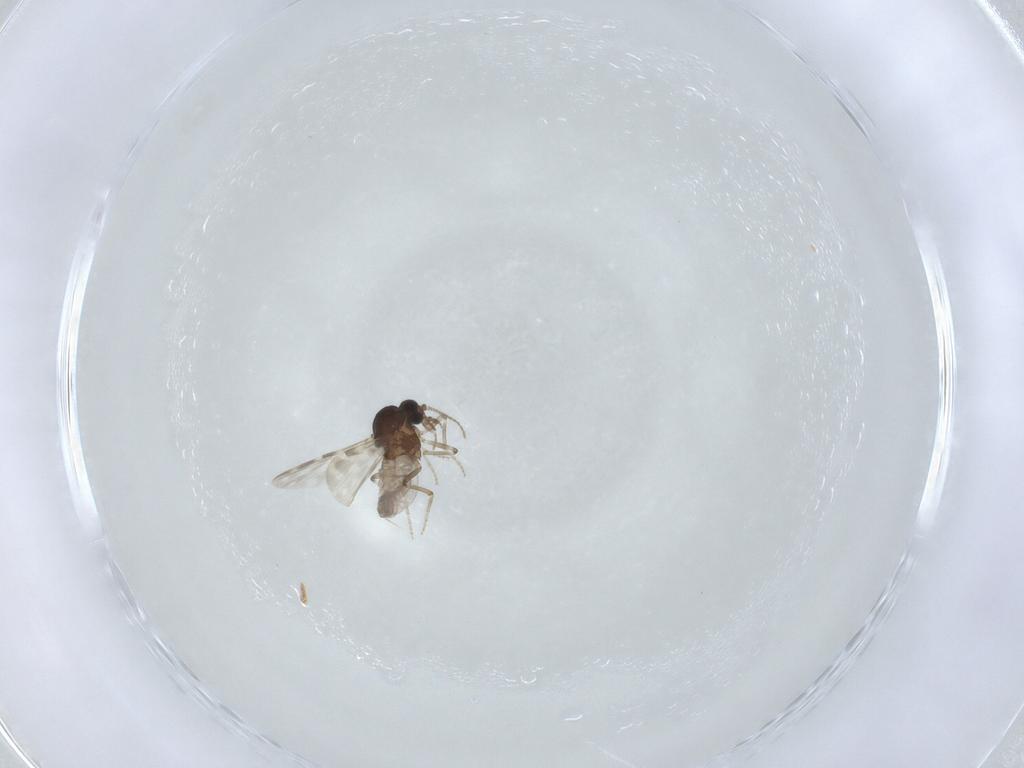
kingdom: Animalia
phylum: Arthropoda
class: Insecta
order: Diptera
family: Ceratopogonidae
